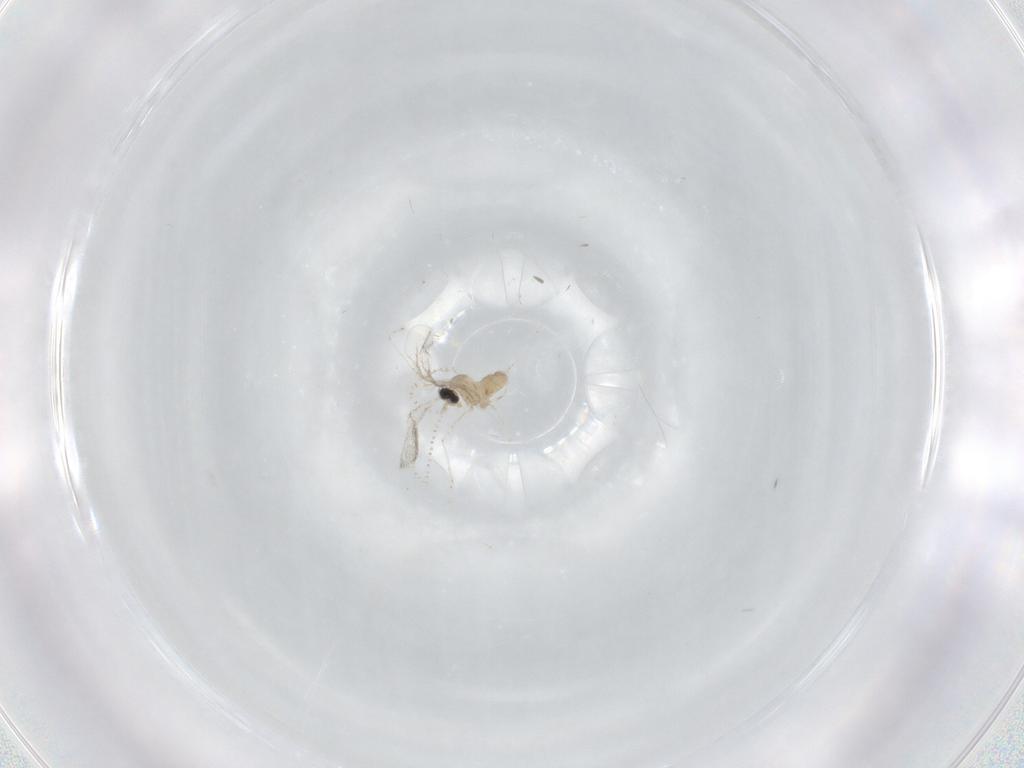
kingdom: Animalia
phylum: Arthropoda
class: Insecta
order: Diptera
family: Cecidomyiidae
